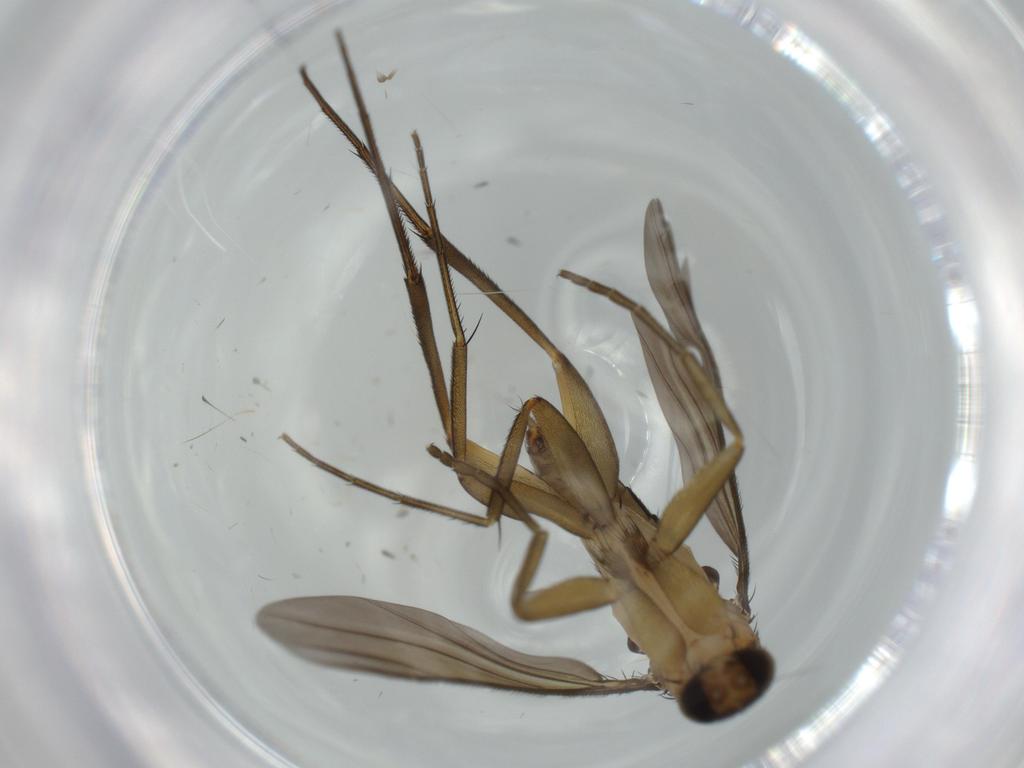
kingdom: Animalia
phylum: Arthropoda
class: Insecta
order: Diptera
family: Phoridae
